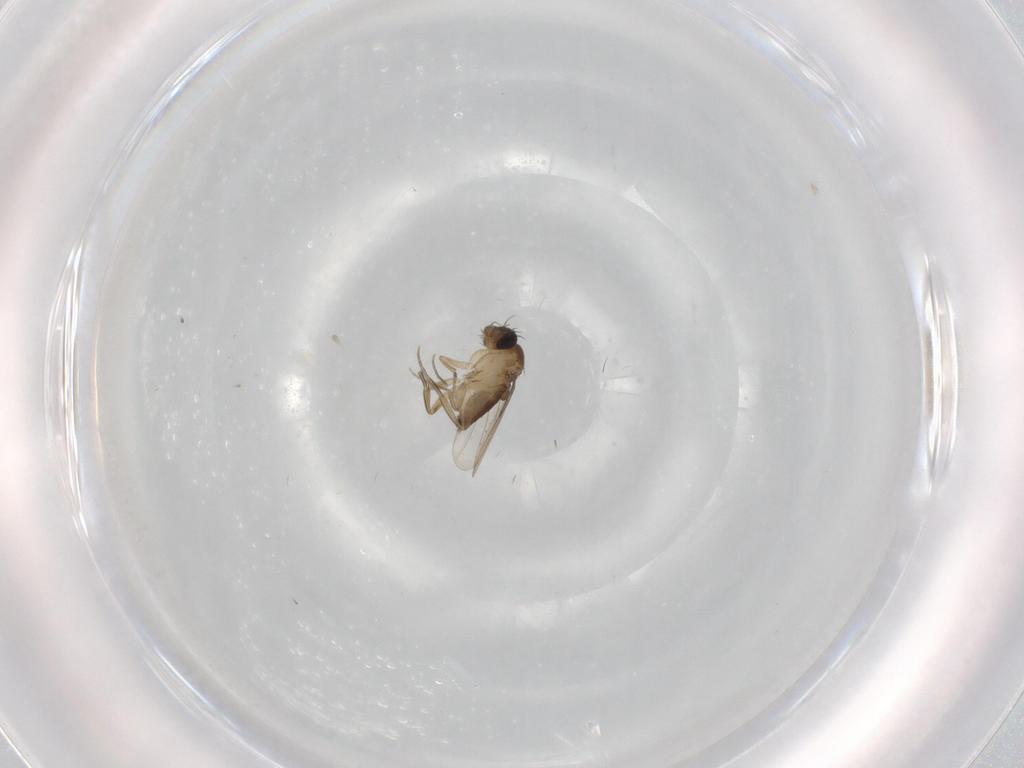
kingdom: Animalia
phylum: Arthropoda
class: Insecta
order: Diptera
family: Phoridae
